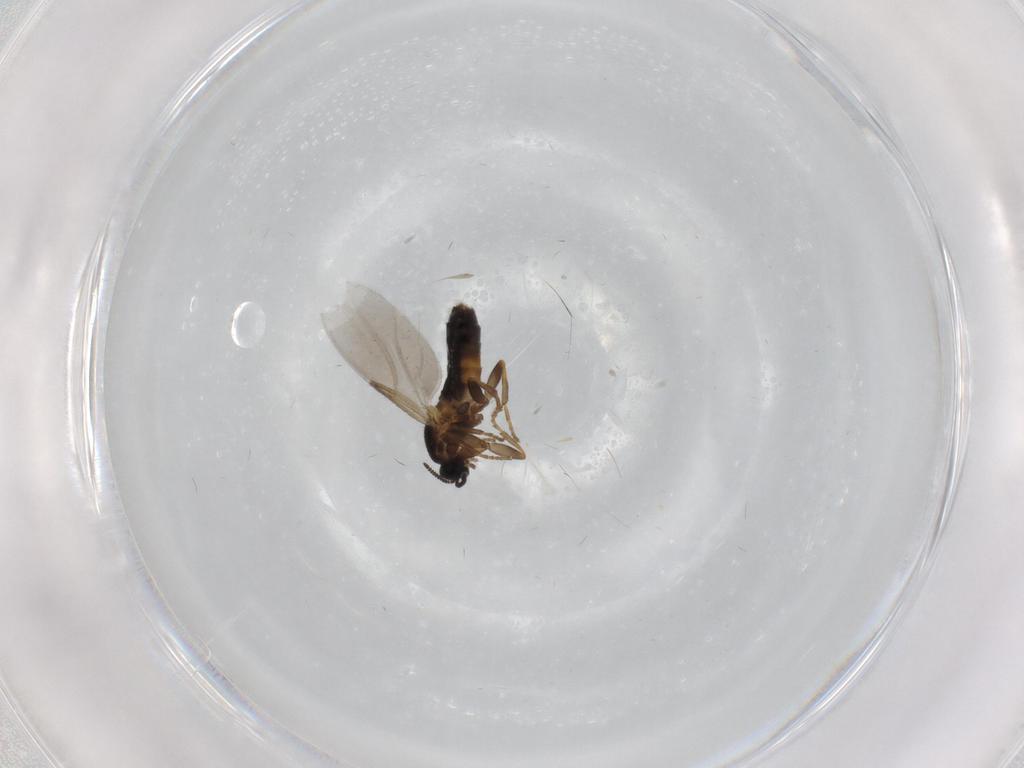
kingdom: Animalia
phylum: Arthropoda
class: Insecta
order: Diptera
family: Scatopsidae
